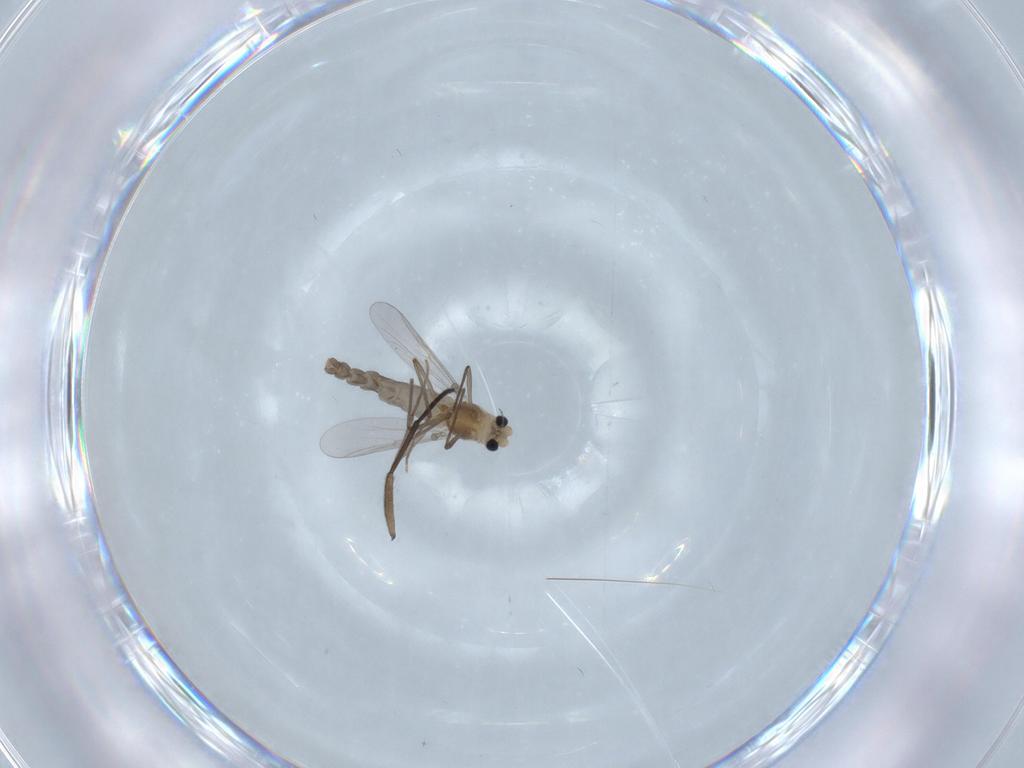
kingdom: Animalia
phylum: Arthropoda
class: Insecta
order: Diptera
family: Chironomidae
